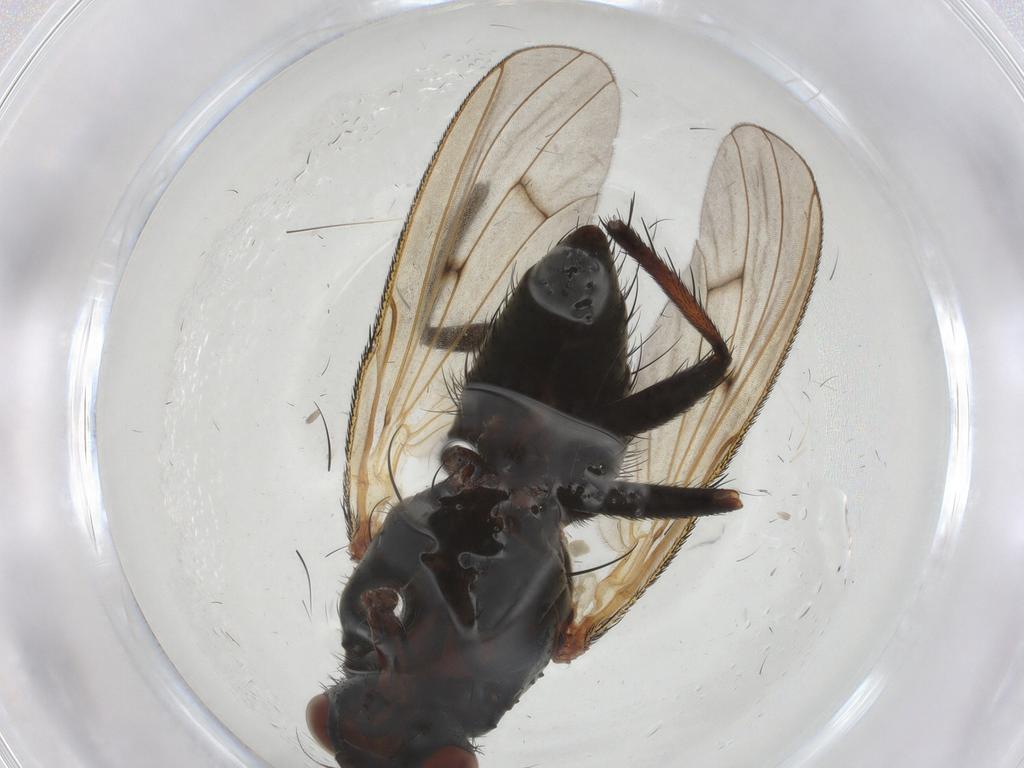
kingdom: Animalia
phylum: Arthropoda
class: Insecta
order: Diptera
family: Anthomyiidae
